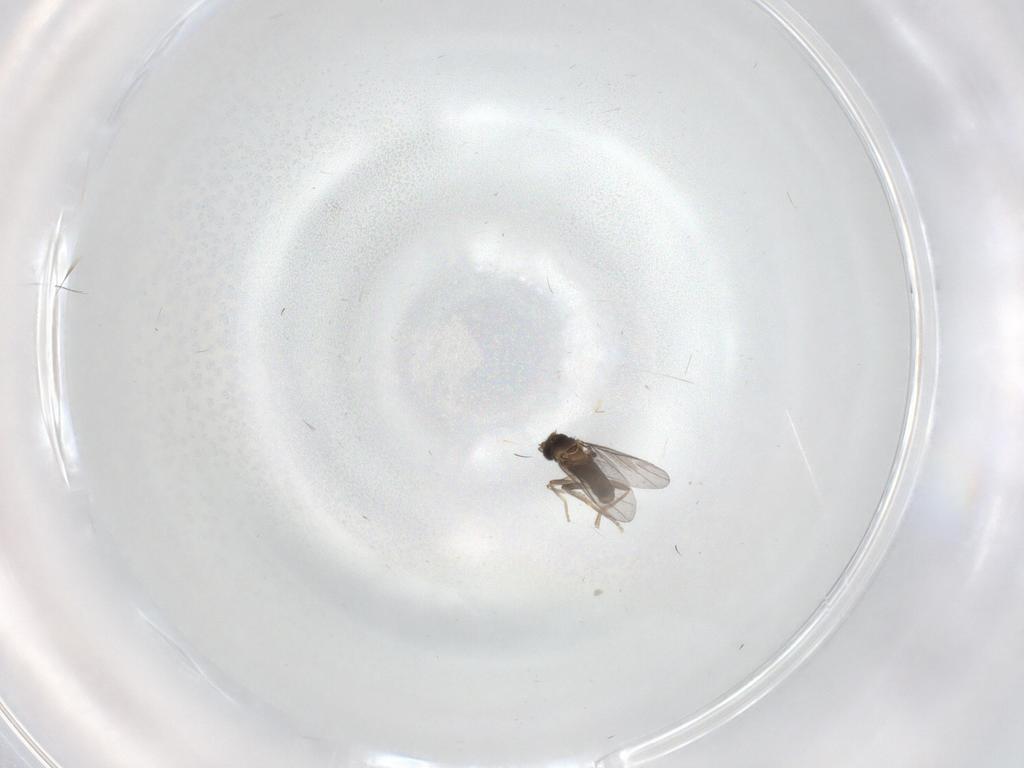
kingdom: Animalia
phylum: Arthropoda
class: Insecta
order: Diptera
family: Cecidomyiidae
